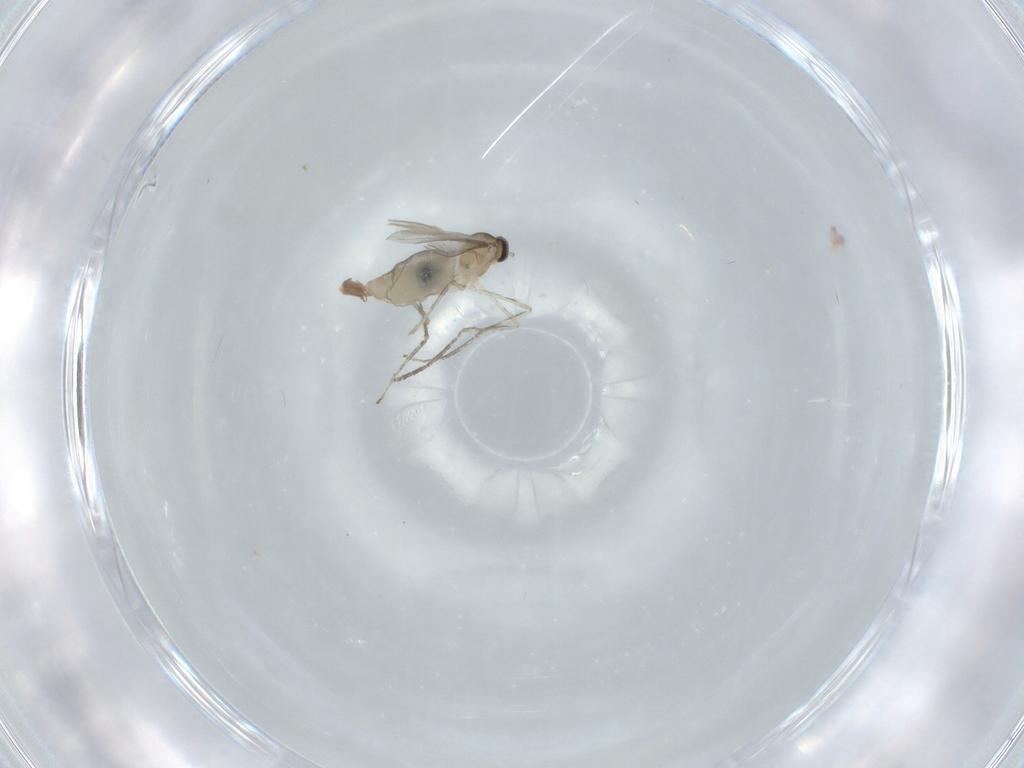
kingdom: Animalia
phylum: Arthropoda
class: Insecta
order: Diptera
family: Cecidomyiidae
